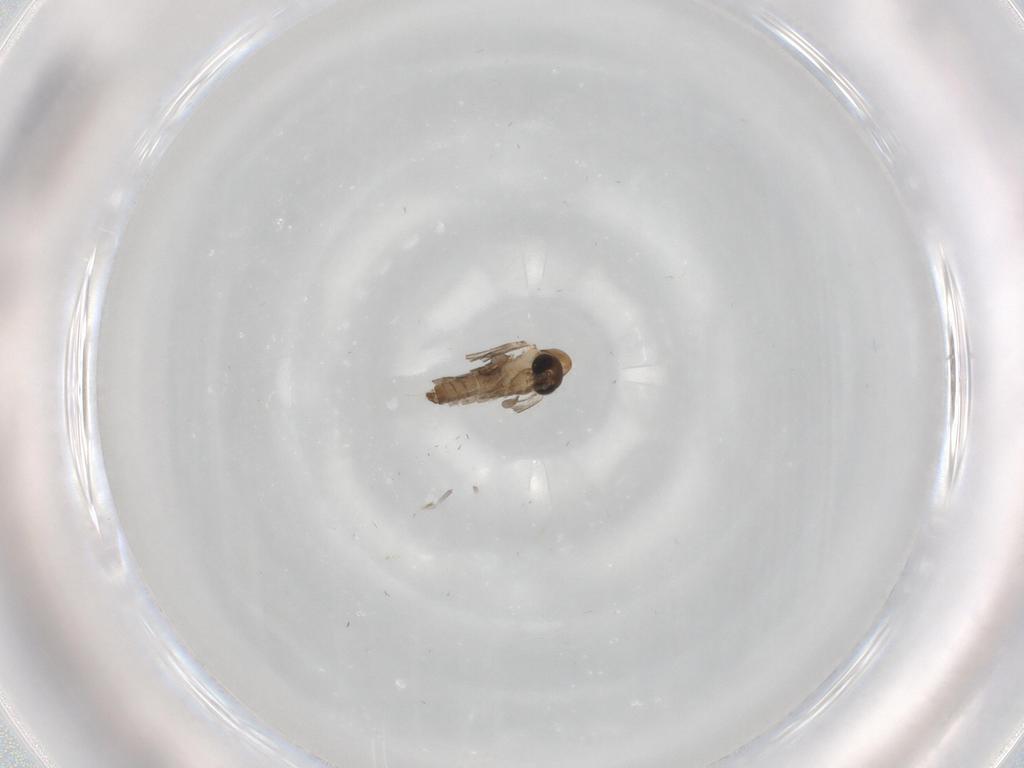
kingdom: Animalia
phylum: Arthropoda
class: Insecta
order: Diptera
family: Psychodidae
